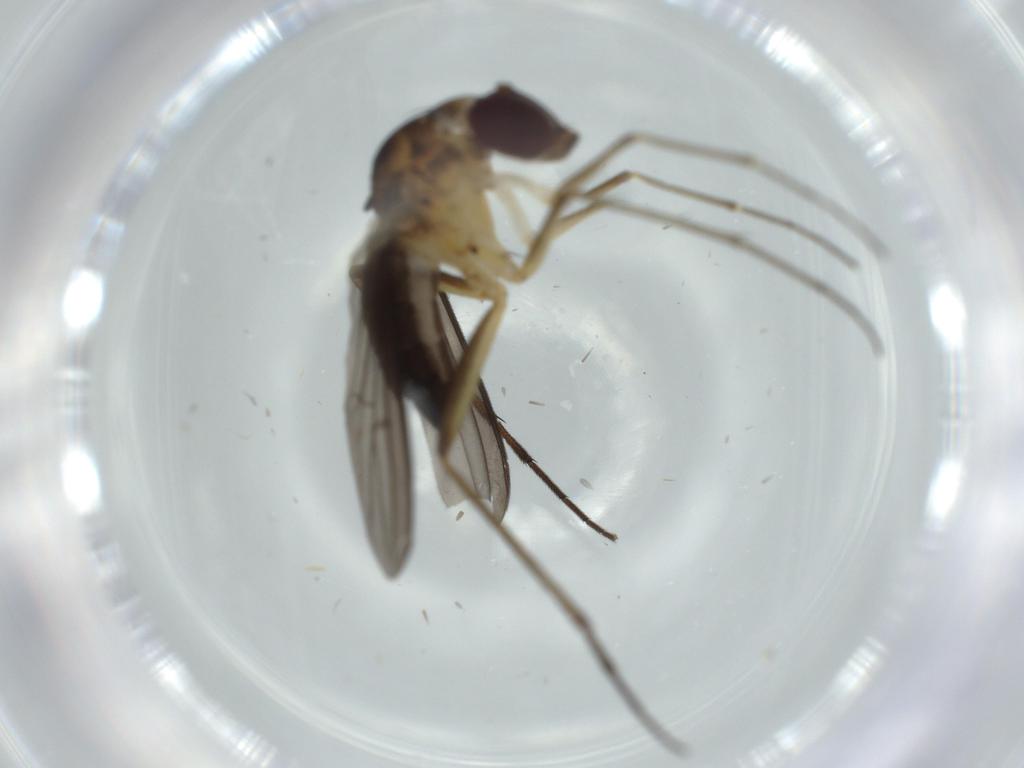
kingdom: Animalia
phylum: Arthropoda
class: Insecta
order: Diptera
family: Dolichopodidae
